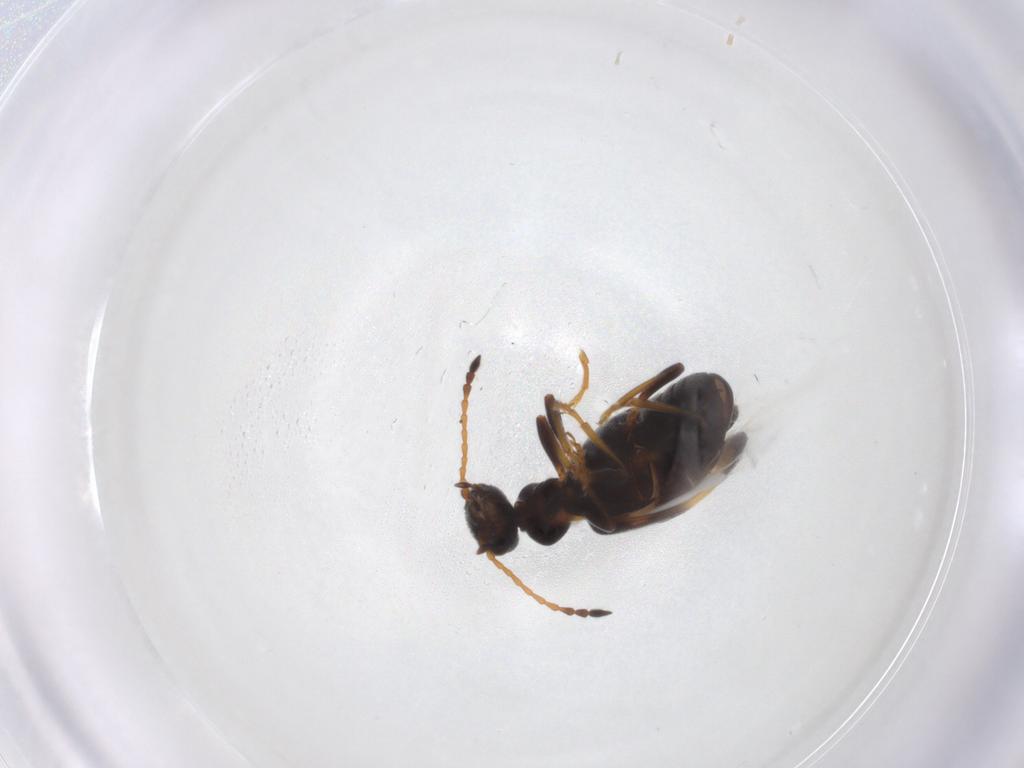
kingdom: Animalia
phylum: Arthropoda
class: Insecta
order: Coleoptera
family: Anthicidae
